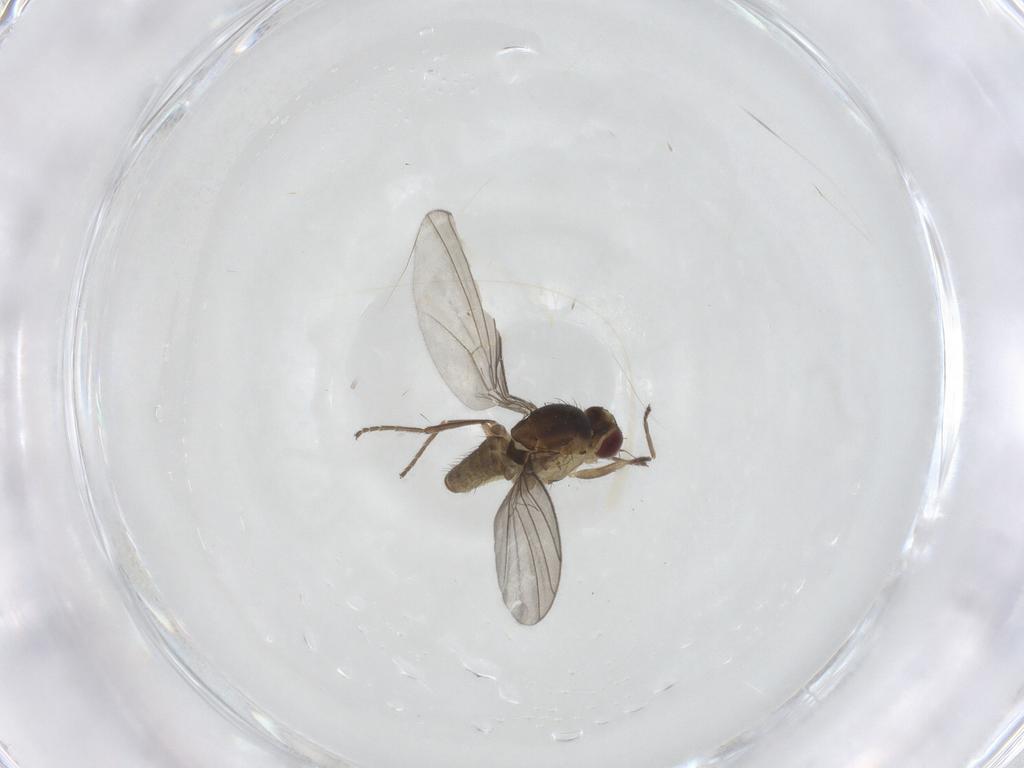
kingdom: Animalia
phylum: Arthropoda
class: Insecta
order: Diptera
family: Agromyzidae
